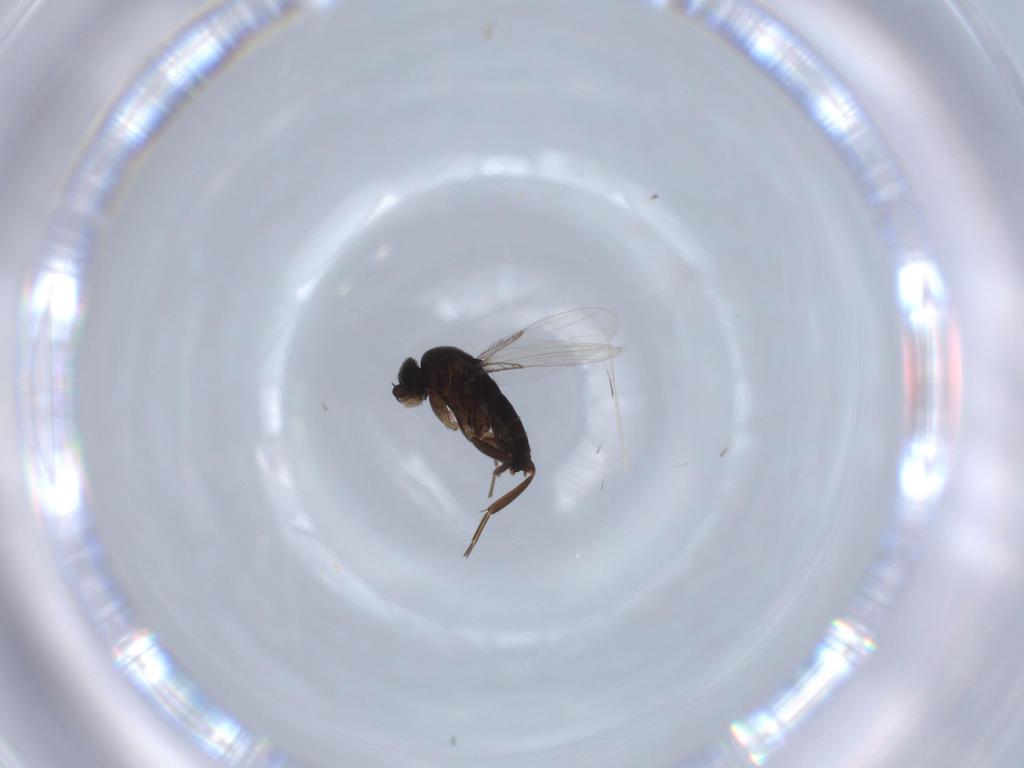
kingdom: Animalia
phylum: Arthropoda
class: Insecta
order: Diptera
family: Phoridae
